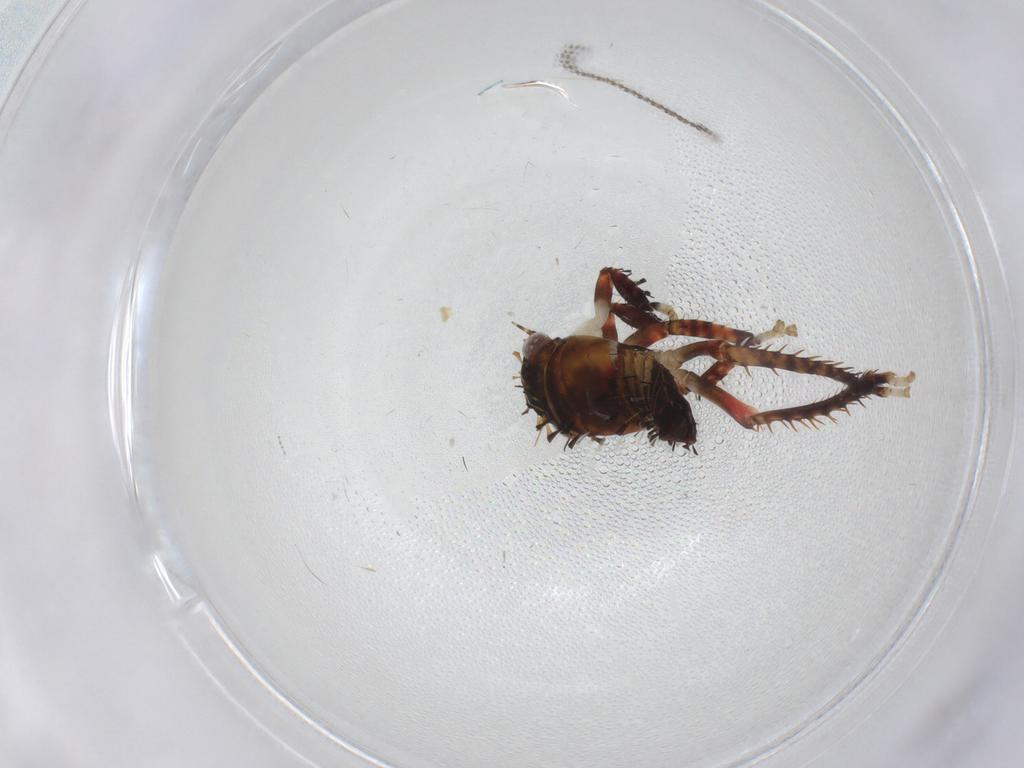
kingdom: Animalia
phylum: Arthropoda
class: Insecta
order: Hemiptera
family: Cicadellidae
